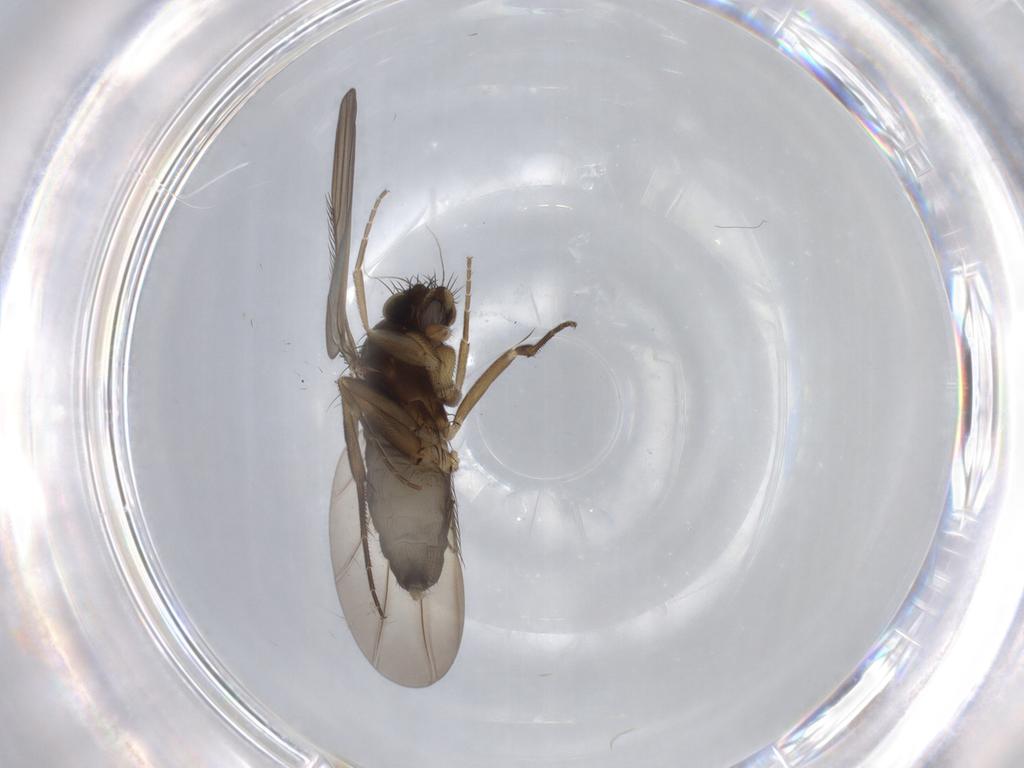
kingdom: Animalia
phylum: Arthropoda
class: Insecta
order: Diptera
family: Phoridae
